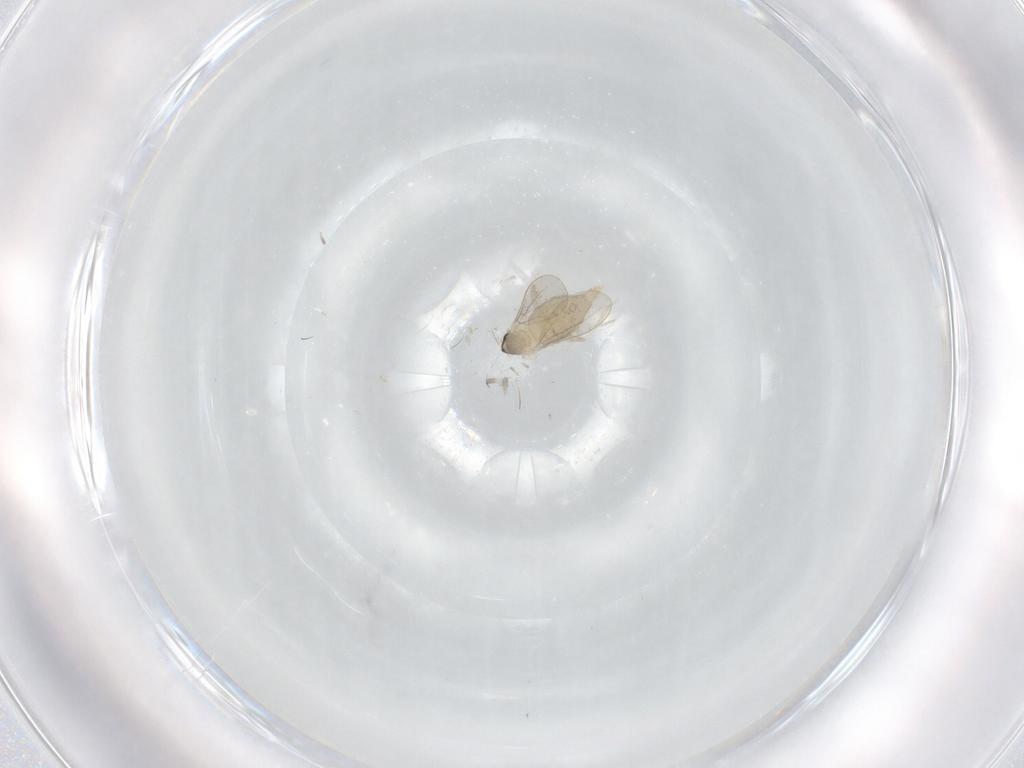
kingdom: Animalia
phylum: Arthropoda
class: Insecta
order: Diptera
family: Cecidomyiidae
